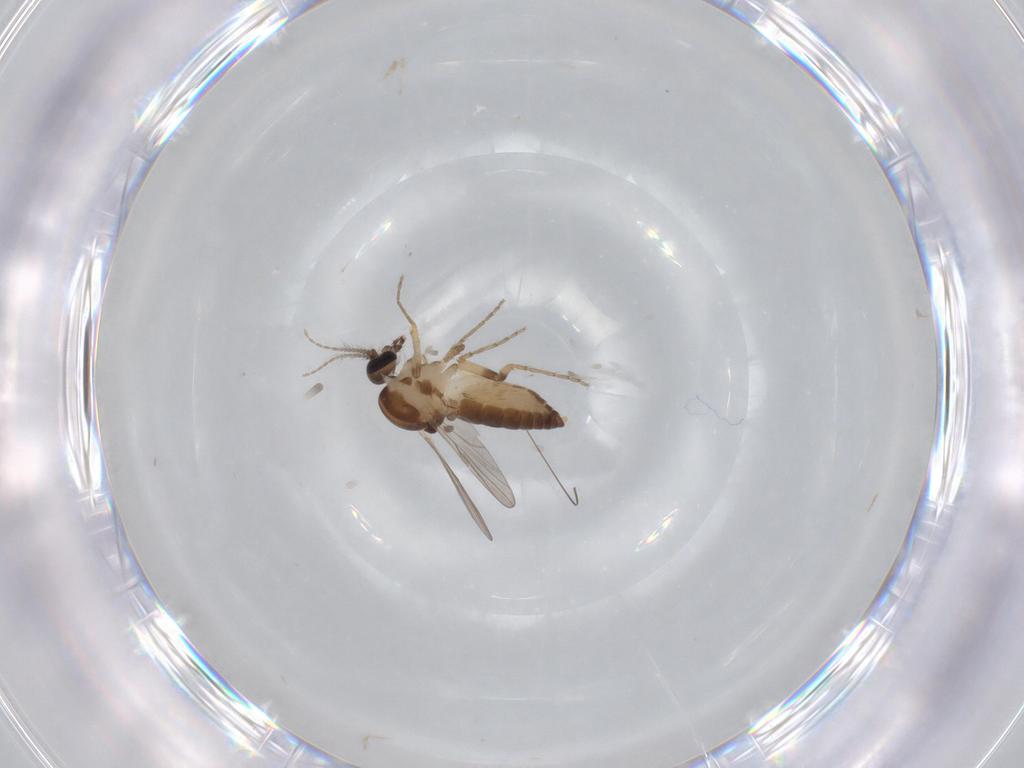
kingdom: Animalia
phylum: Arthropoda
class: Insecta
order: Diptera
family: Ceratopogonidae
